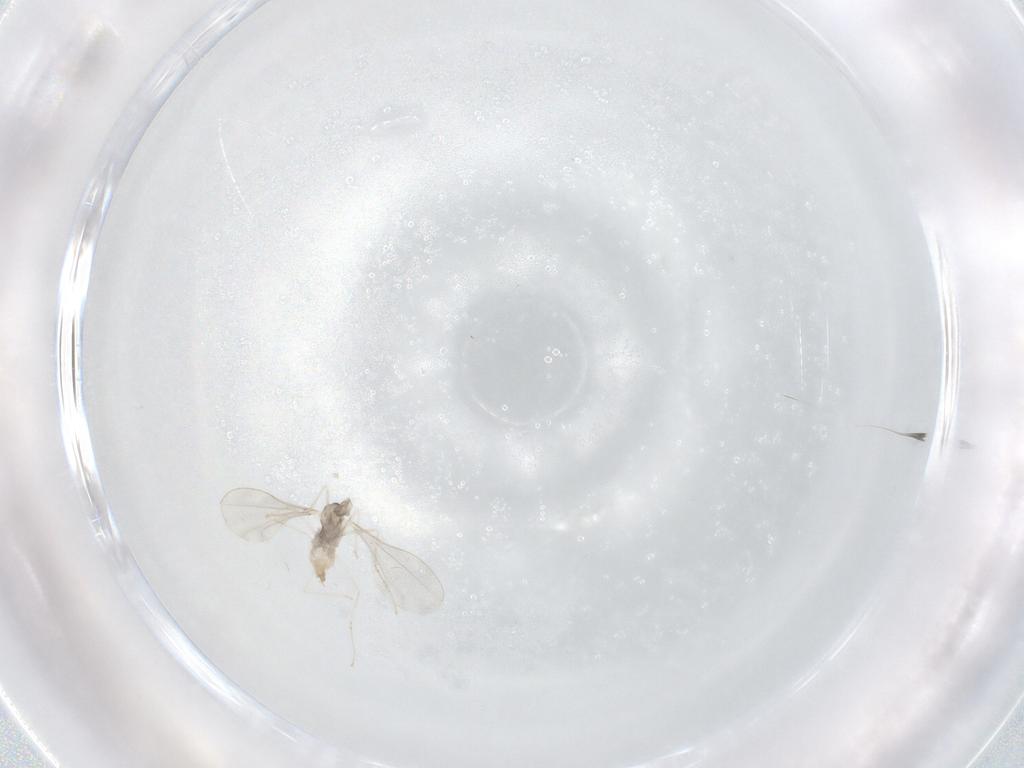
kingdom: Animalia
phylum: Arthropoda
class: Insecta
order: Diptera
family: Cecidomyiidae
